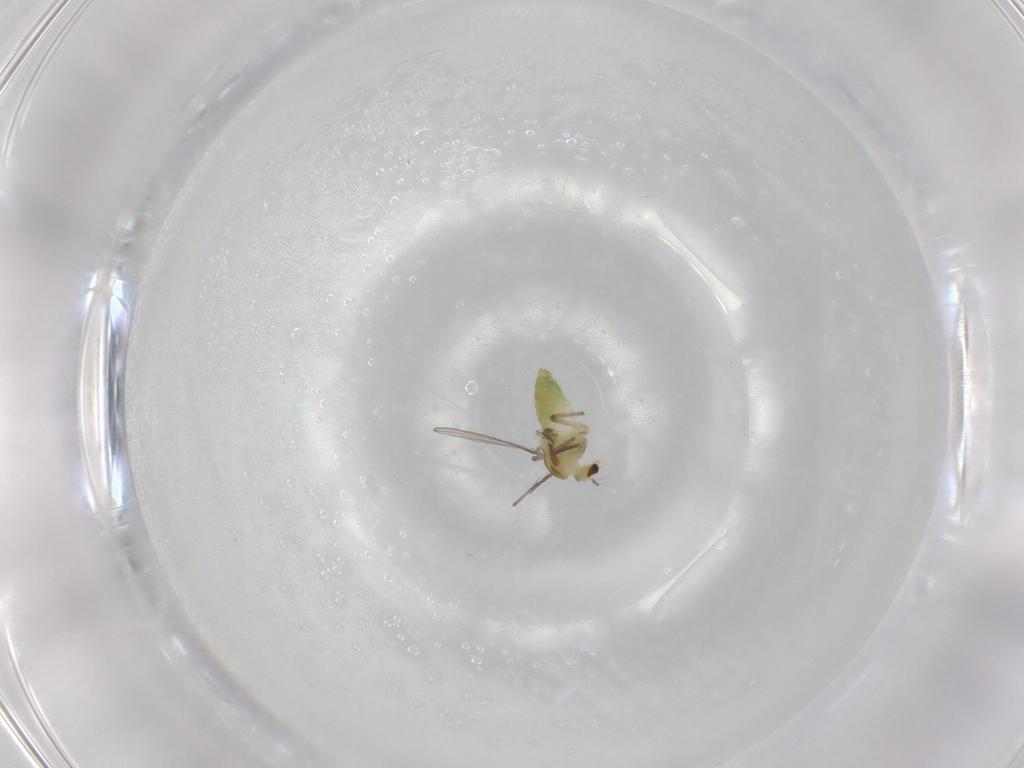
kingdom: Animalia
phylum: Arthropoda
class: Insecta
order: Diptera
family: Chironomidae
